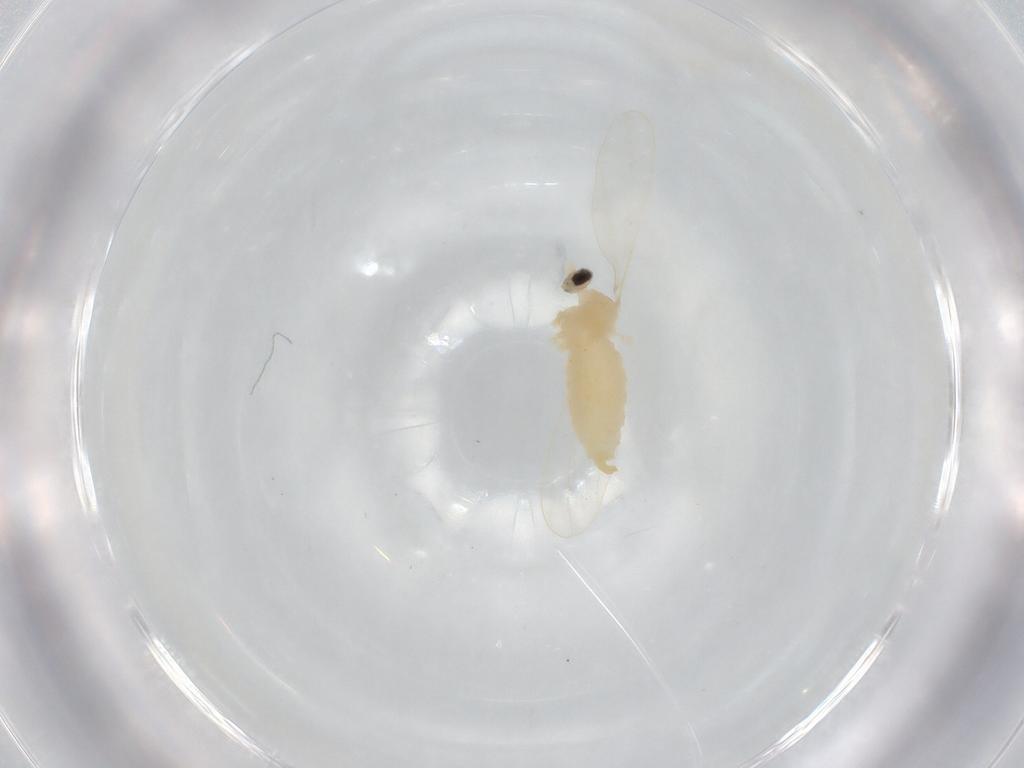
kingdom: Animalia
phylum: Arthropoda
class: Insecta
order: Diptera
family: Cecidomyiidae
